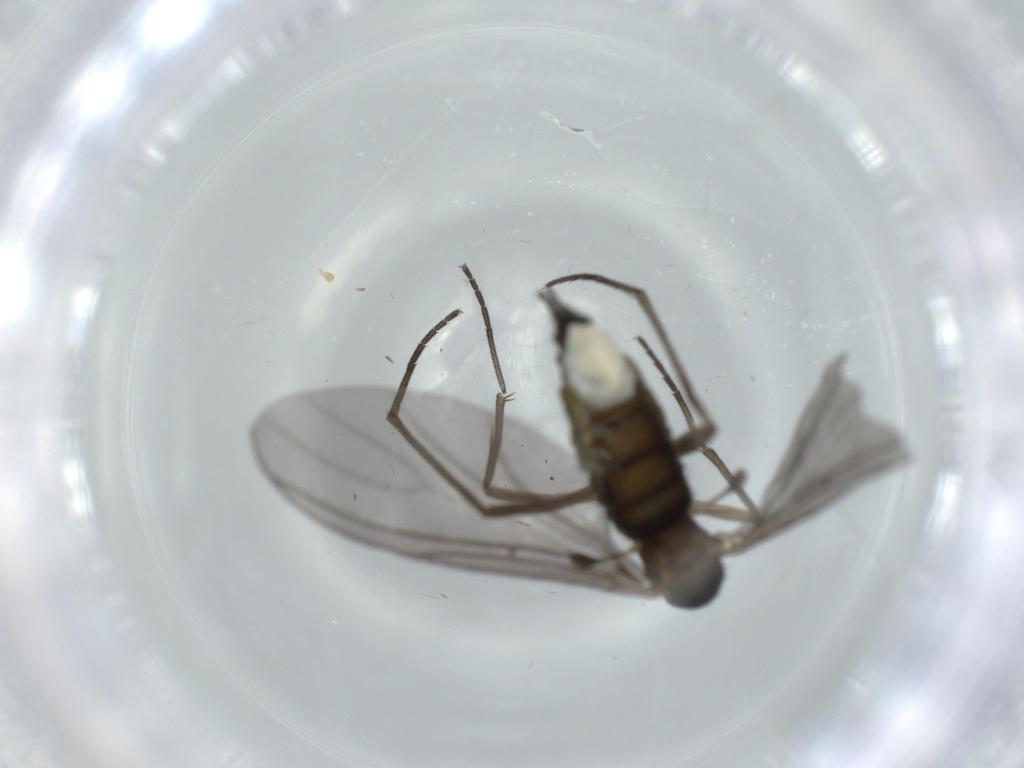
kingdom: Animalia
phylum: Arthropoda
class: Insecta
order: Diptera
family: Sciaridae
